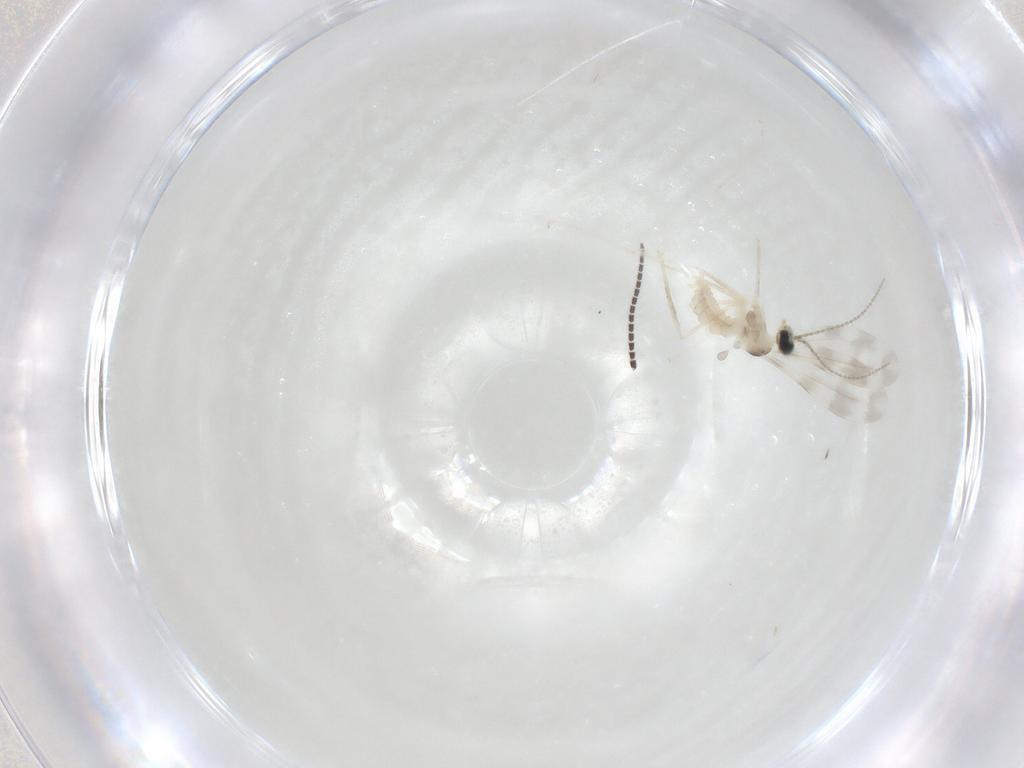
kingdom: Animalia
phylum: Arthropoda
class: Insecta
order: Diptera
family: Cecidomyiidae
